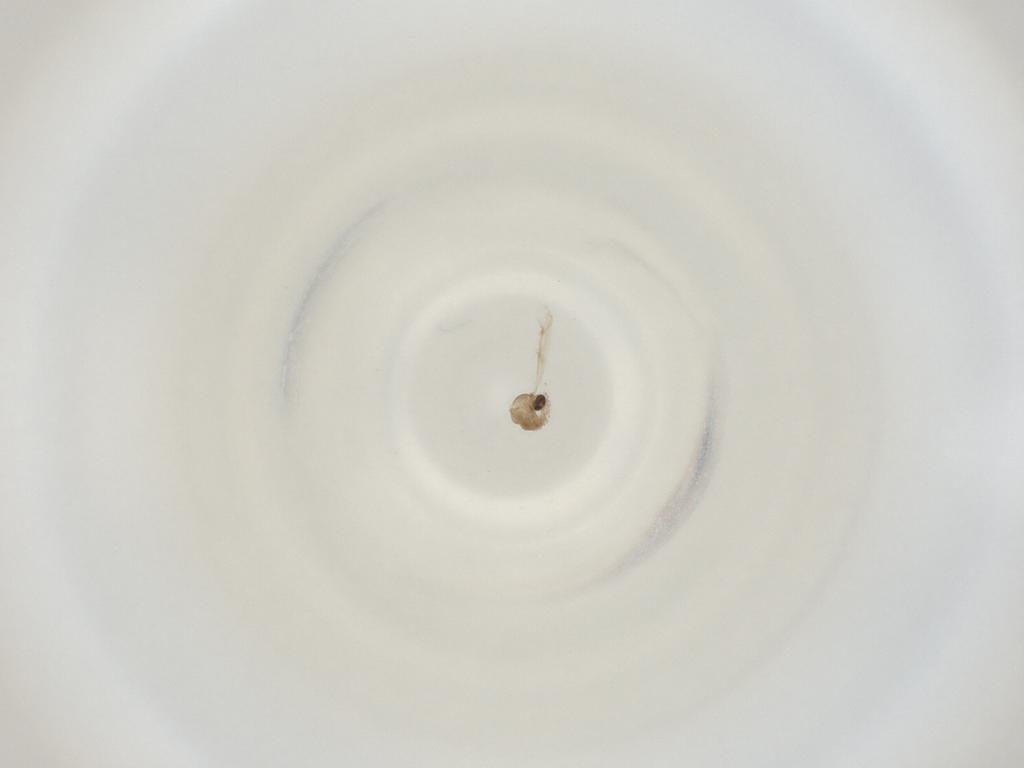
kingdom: Animalia
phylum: Arthropoda
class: Insecta
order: Diptera
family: Cecidomyiidae
